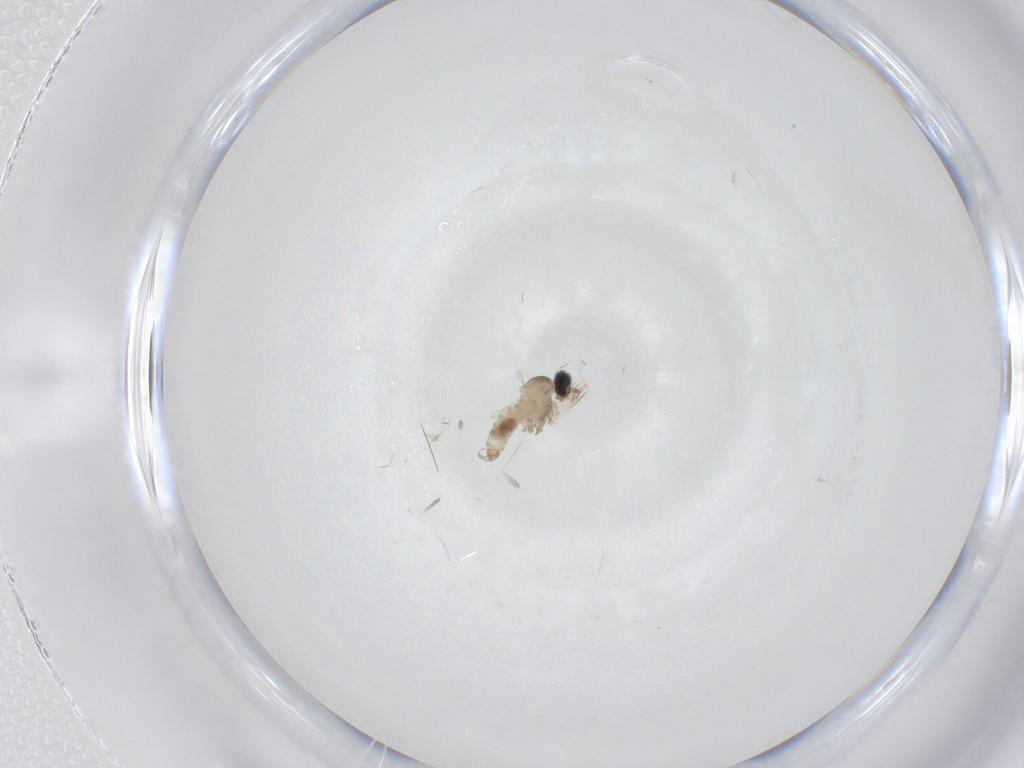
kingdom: Animalia
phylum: Arthropoda
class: Insecta
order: Diptera
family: Cecidomyiidae
